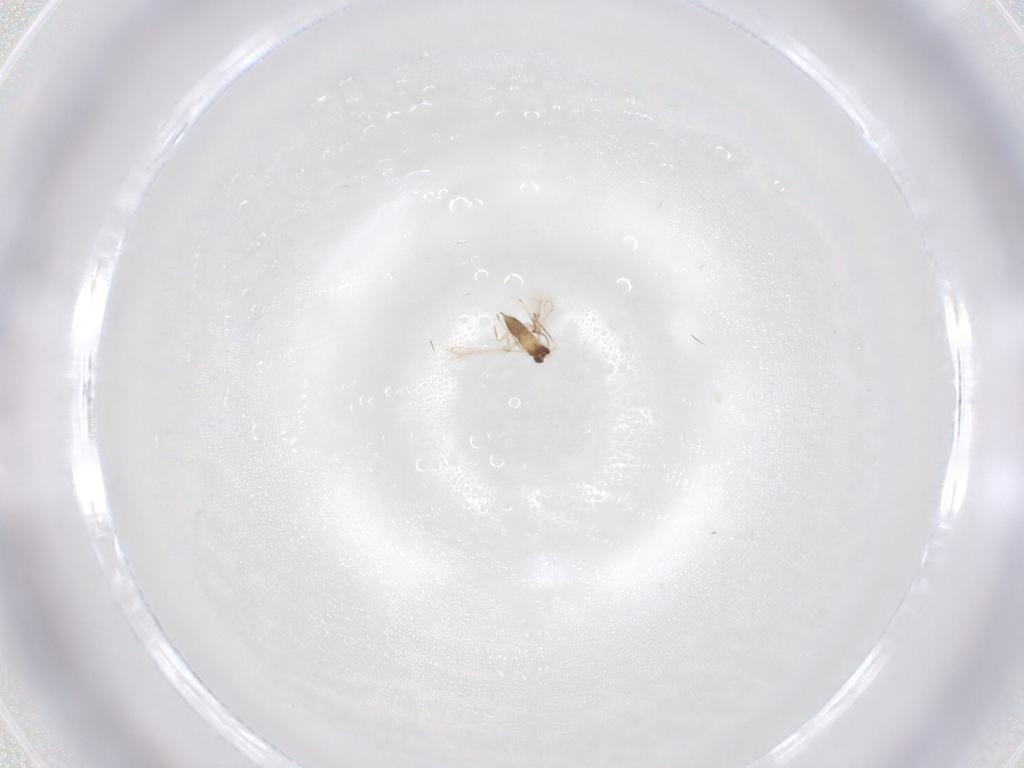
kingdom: Animalia
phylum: Arthropoda
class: Insecta
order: Hymenoptera
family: Mymaridae
